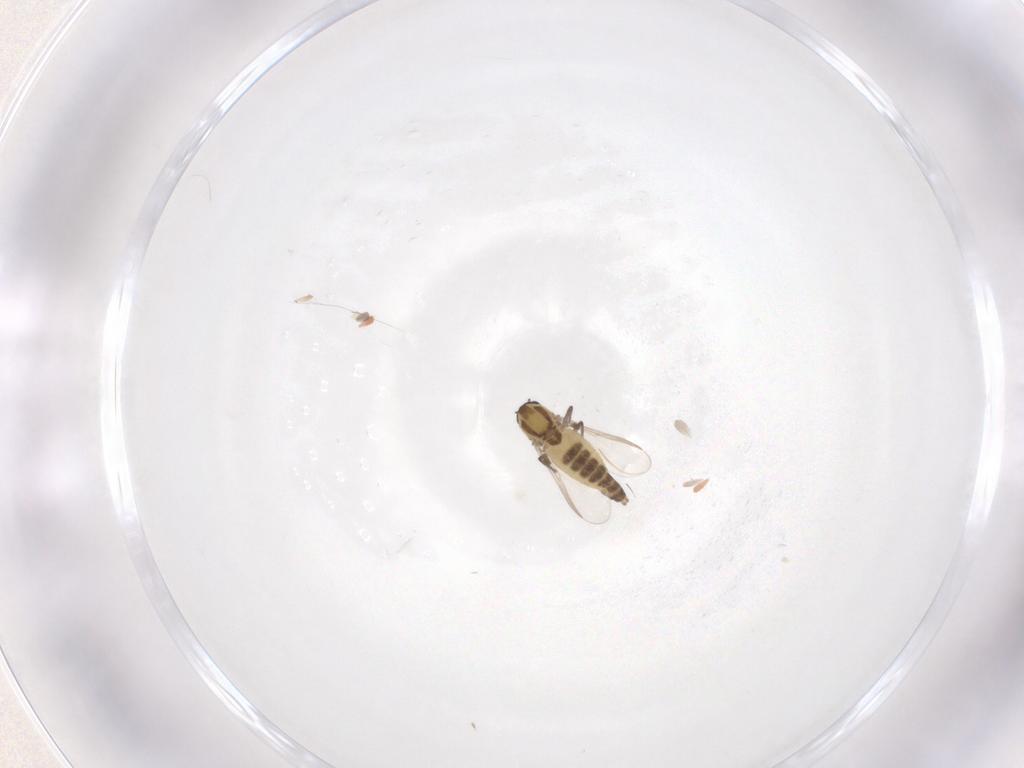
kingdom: Animalia
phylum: Arthropoda
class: Insecta
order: Diptera
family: Chironomidae
